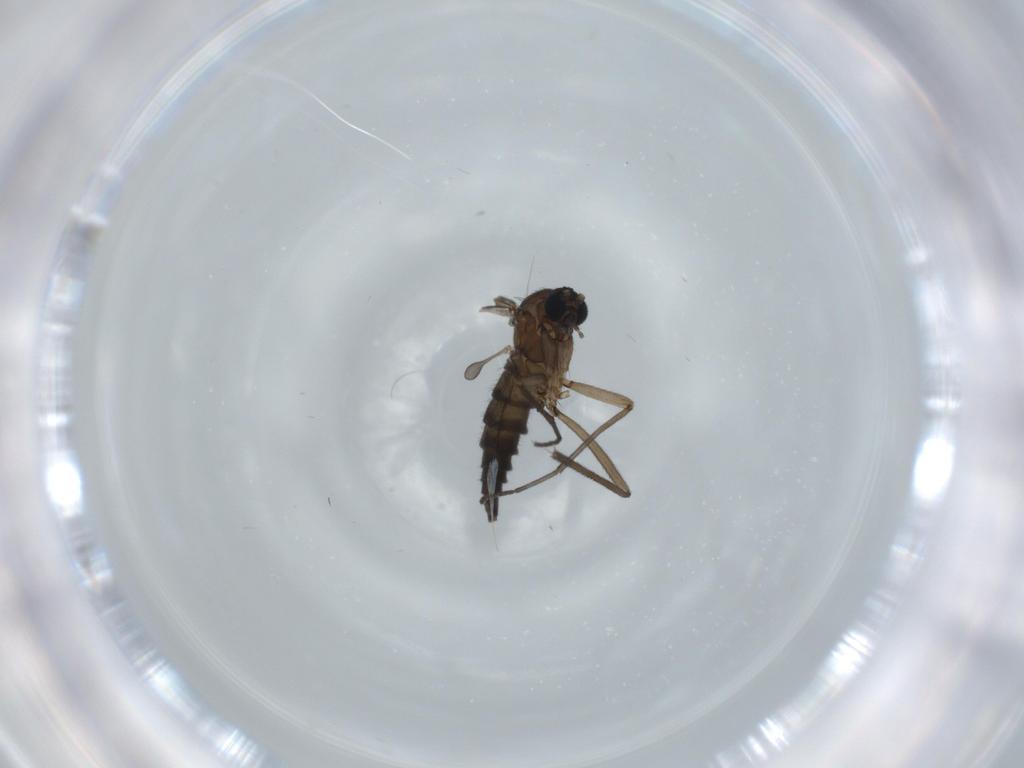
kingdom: Animalia
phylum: Arthropoda
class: Insecta
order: Diptera
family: Sciaridae
